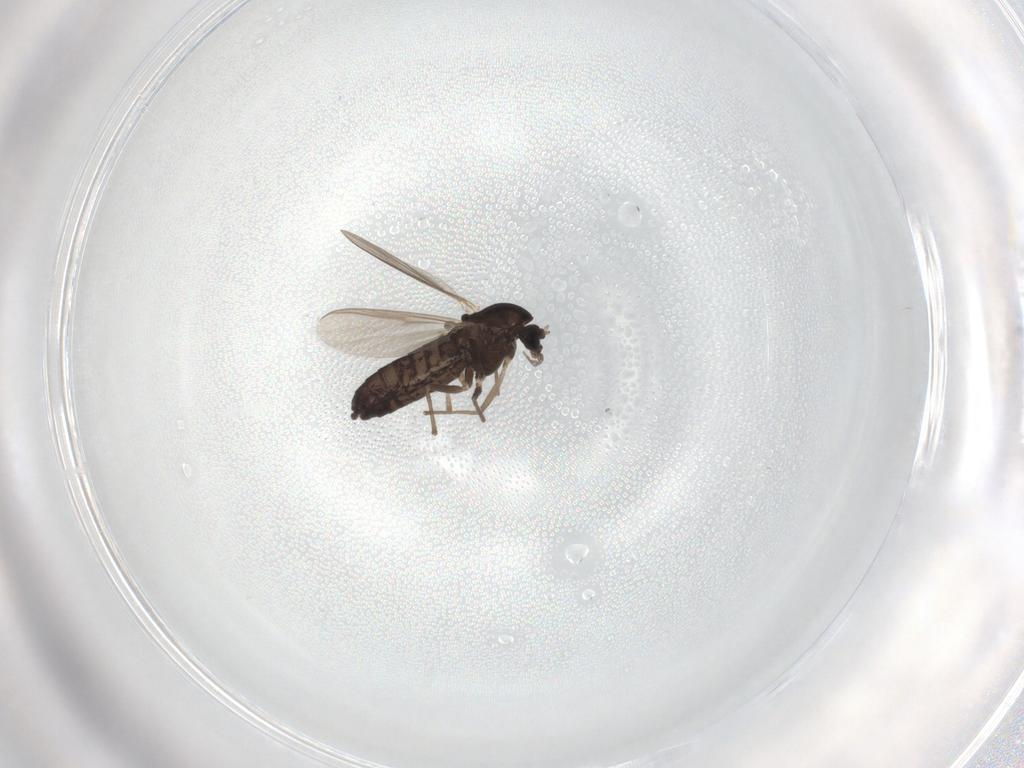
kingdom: Animalia
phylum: Arthropoda
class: Insecta
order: Diptera
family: Chironomidae
